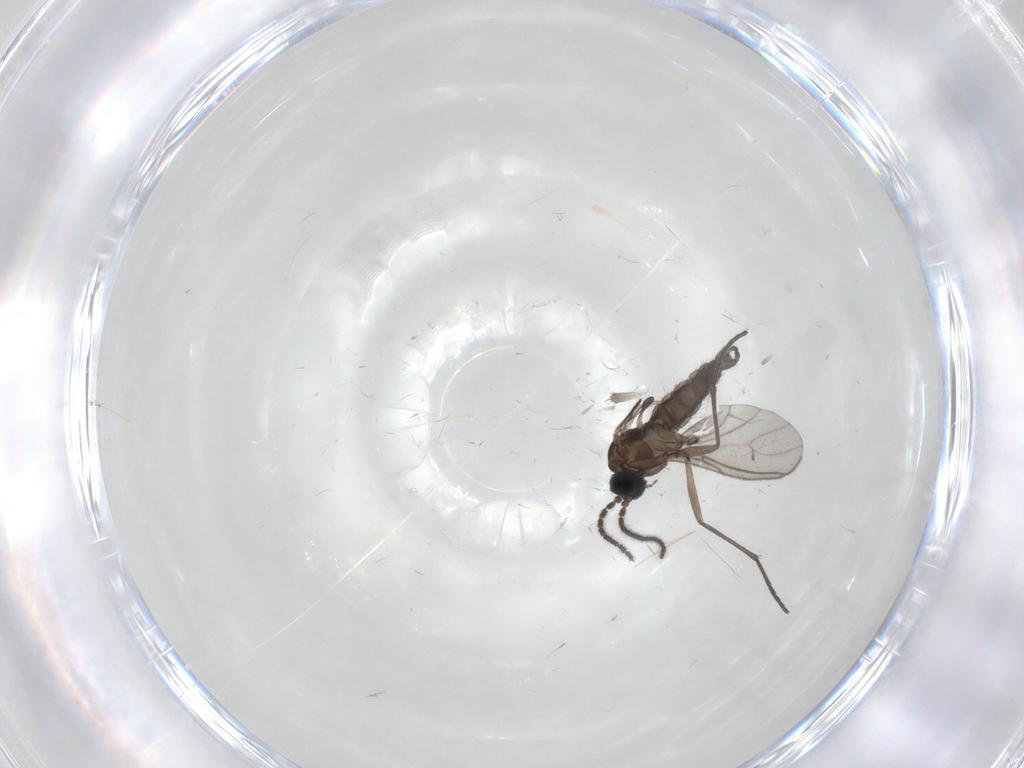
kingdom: Animalia
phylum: Arthropoda
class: Insecta
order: Diptera
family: Sciaridae
